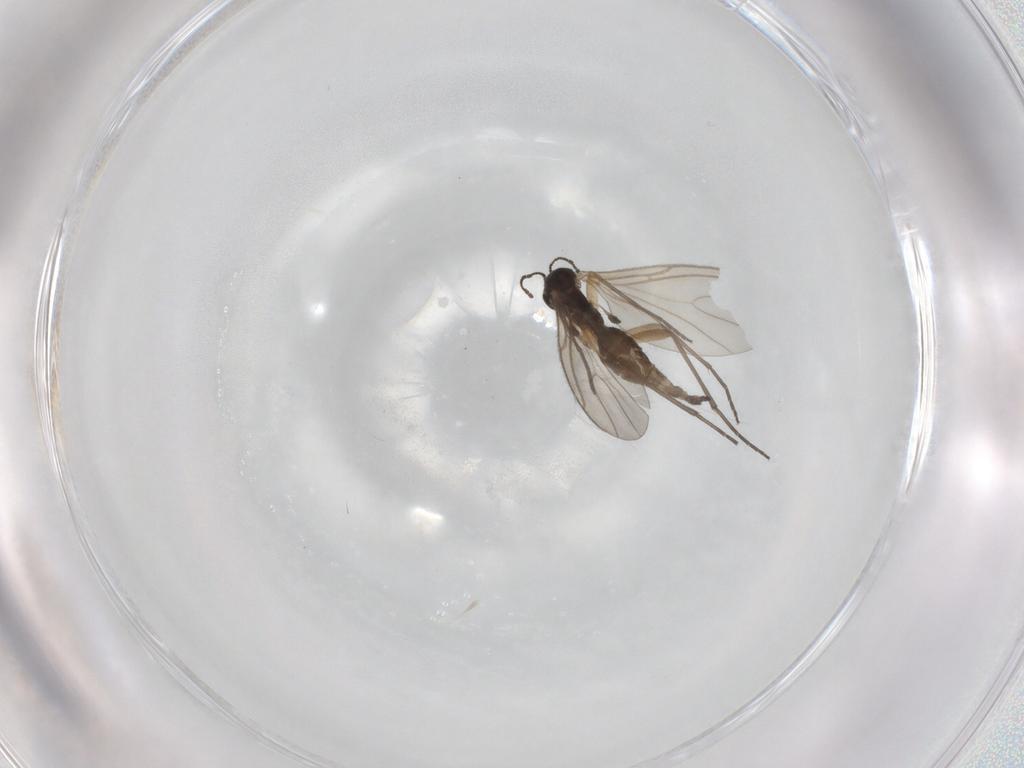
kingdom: Animalia
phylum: Arthropoda
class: Insecta
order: Diptera
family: Sciaridae
